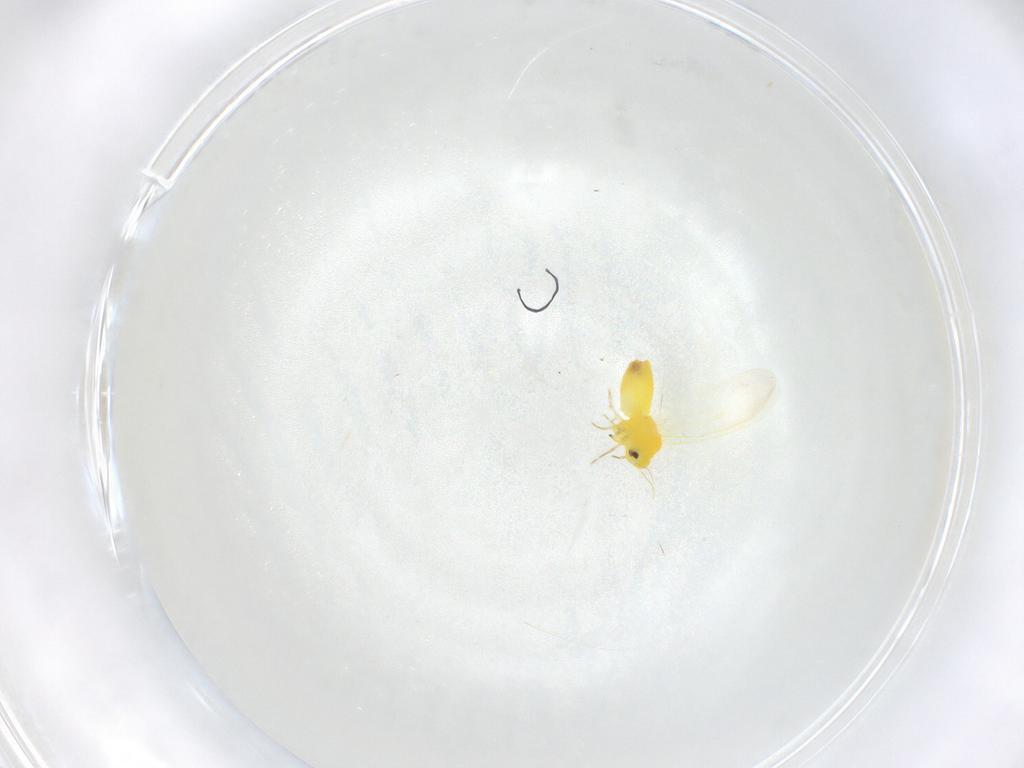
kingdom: Animalia
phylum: Arthropoda
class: Insecta
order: Hemiptera
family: Aleyrodidae
